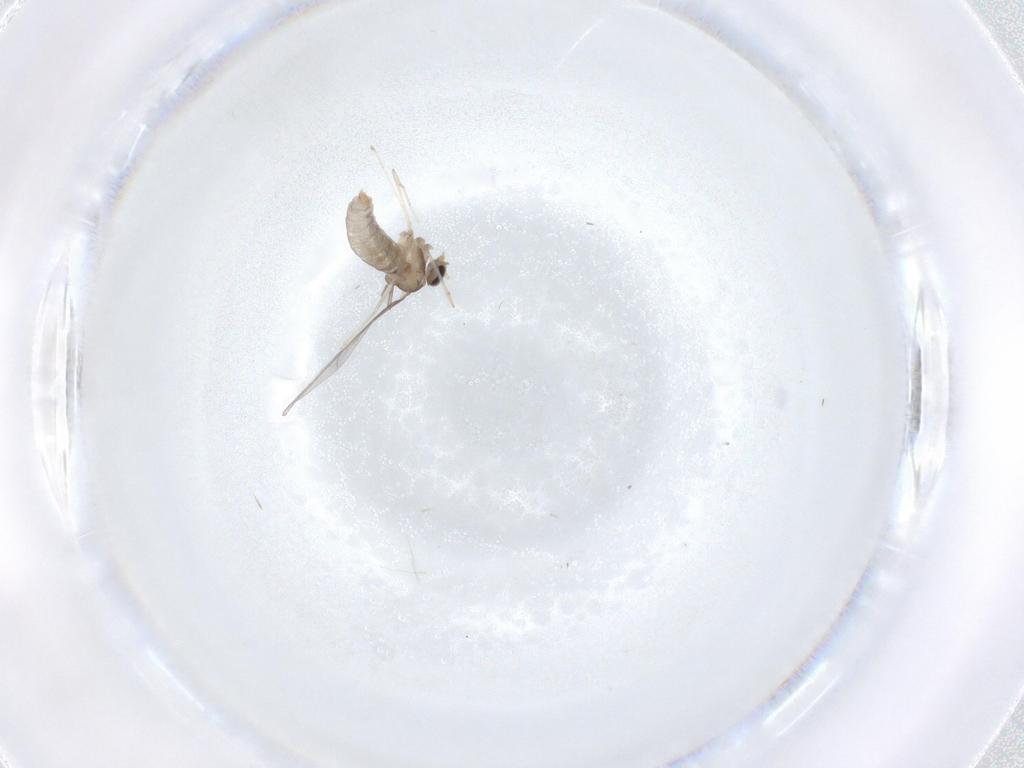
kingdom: Animalia
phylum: Arthropoda
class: Insecta
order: Diptera
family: Cecidomyiidae
